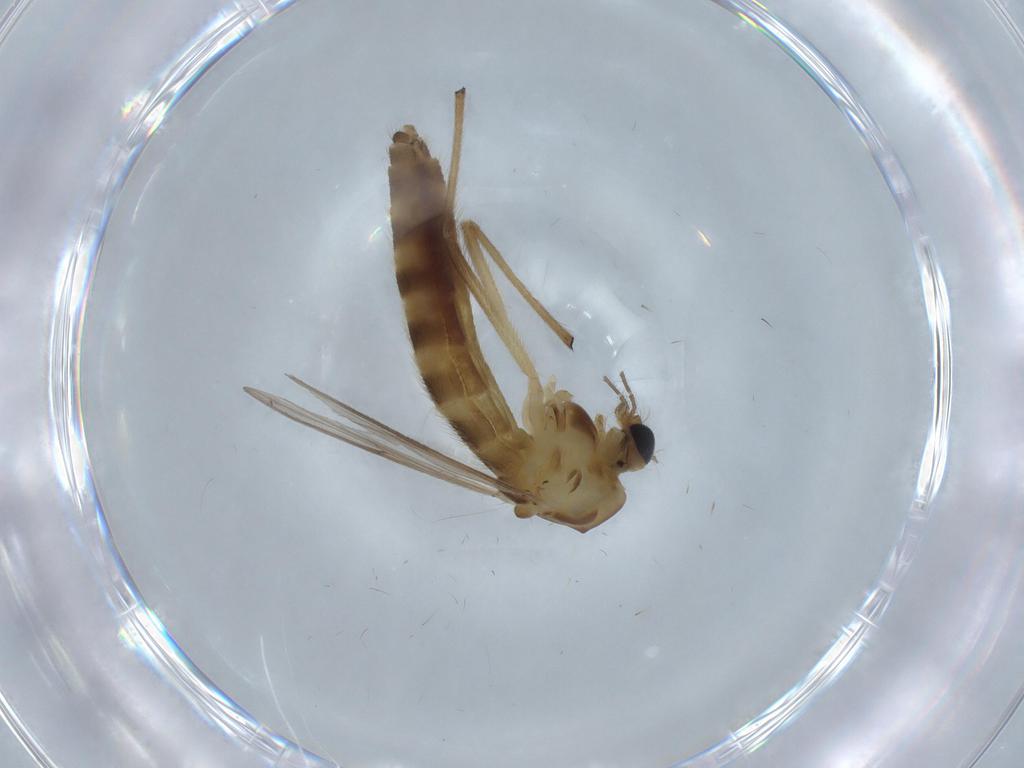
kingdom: Animalia
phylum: Arthropoda
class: Insecta
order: Diptera
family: Chironomidae
